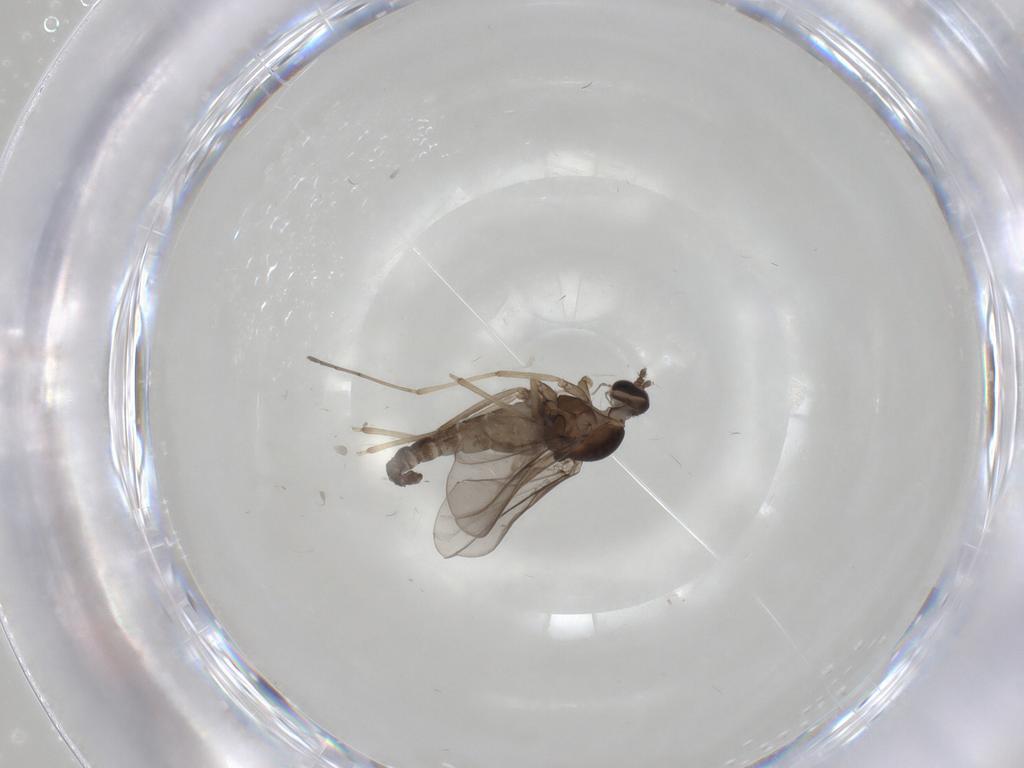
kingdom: Animalia
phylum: Arthropoda
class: Insecta
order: Diptera
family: Cecidomyiidae
